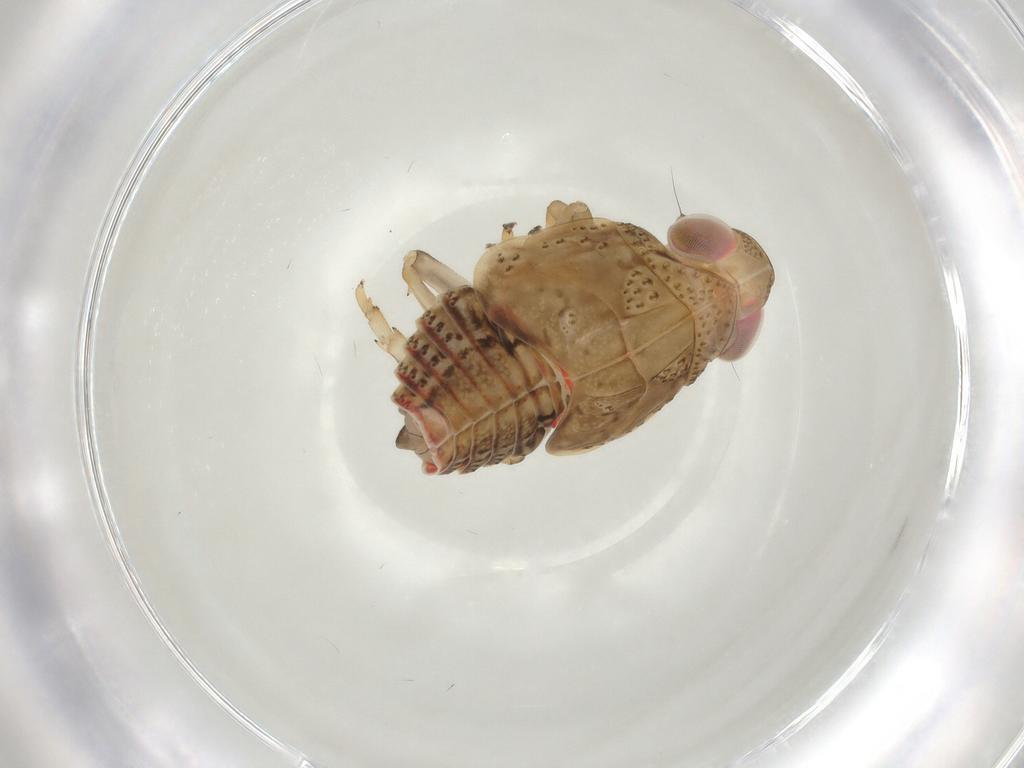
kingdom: Animalia
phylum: Arthropoda
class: Insecta
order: Hemiptera
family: Issidae
